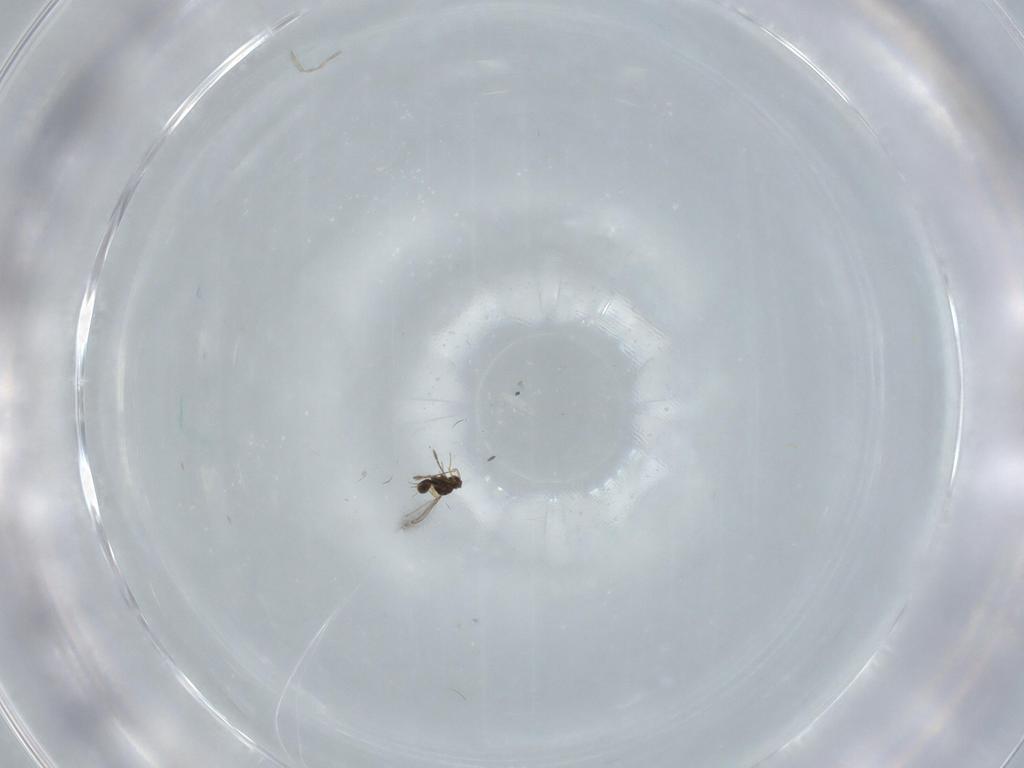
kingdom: Animalia
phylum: Arthropoda
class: Insecta
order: Hymenoptera
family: Mymaridae
